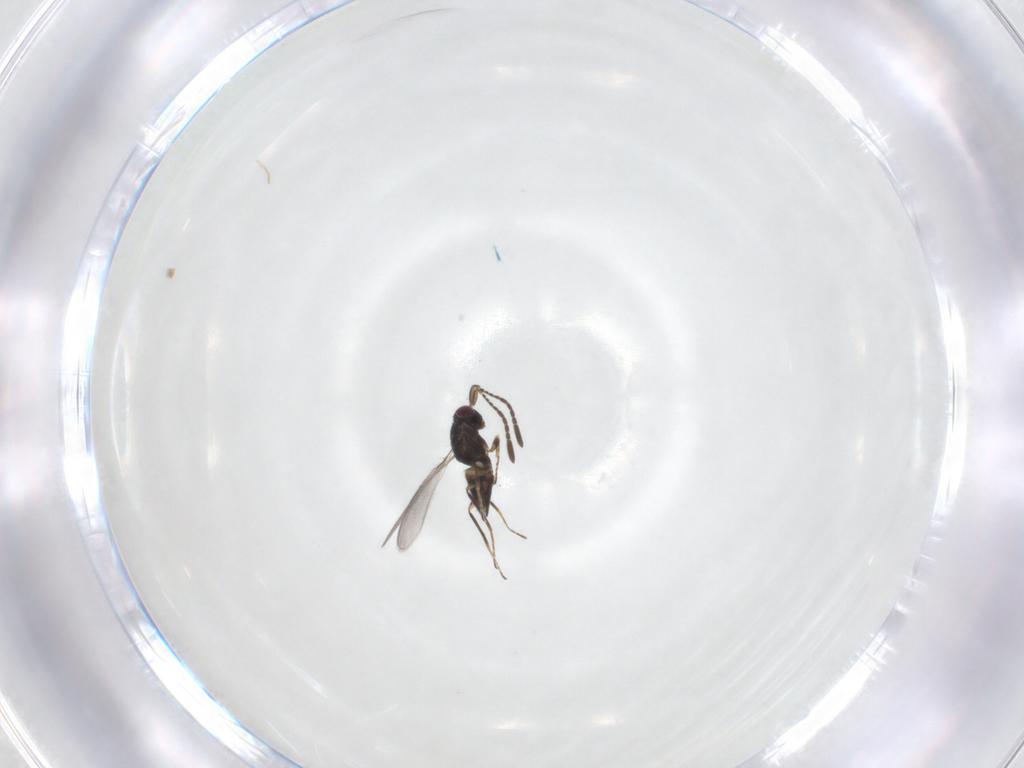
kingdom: Animalia
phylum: Arthropoda
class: Insecta
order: Hymenoptera
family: Mymaridae
